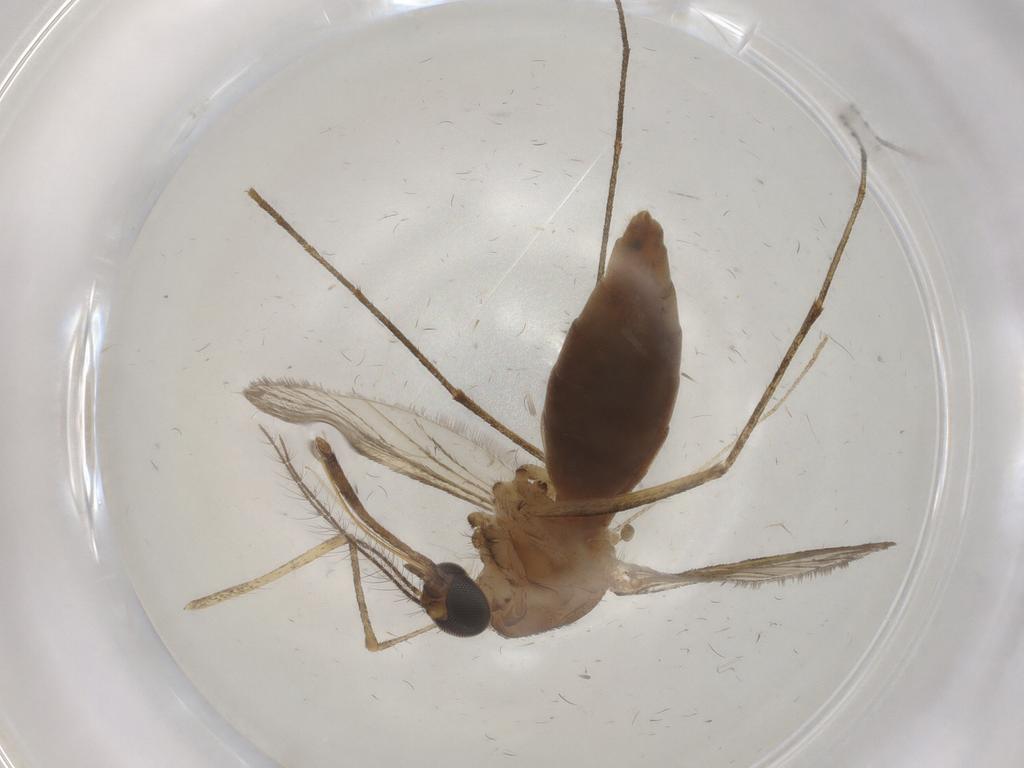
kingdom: Animalia
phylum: Arthropoda
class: Insecta
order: Diptera
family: Psychodidae
